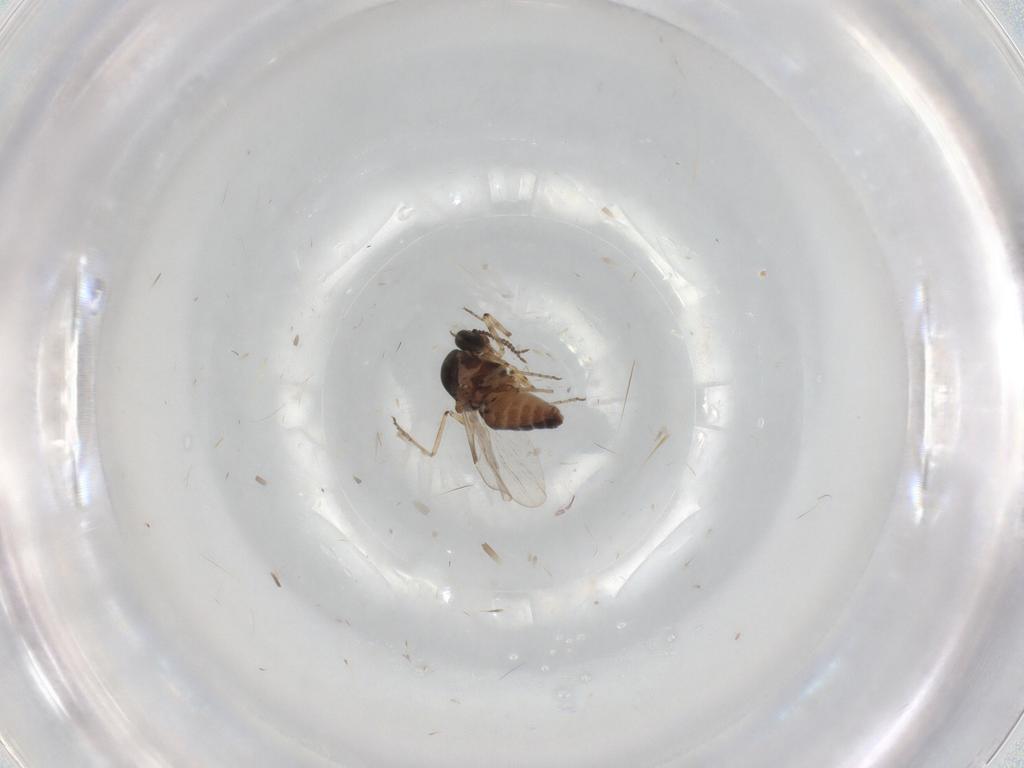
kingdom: Animalia
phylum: Arthropoda
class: Insecta
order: Diptera
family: Ceratopogonidae
